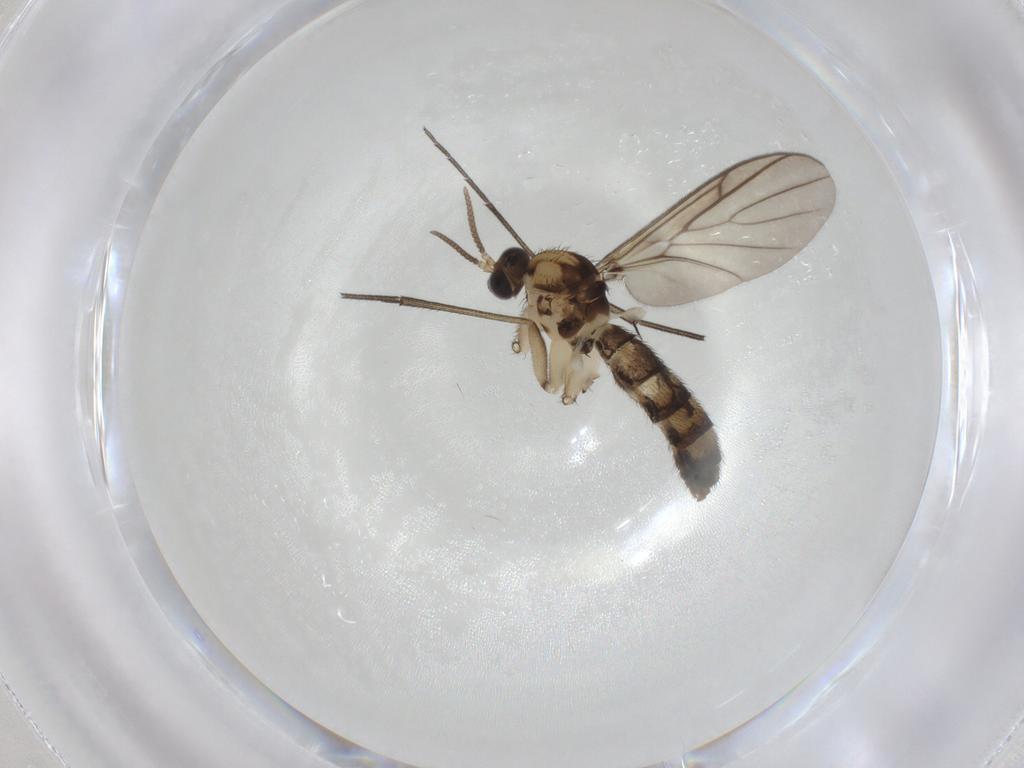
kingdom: Animalia
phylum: Arthropoda
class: Insecta
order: Diptera
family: Keroplatidae
